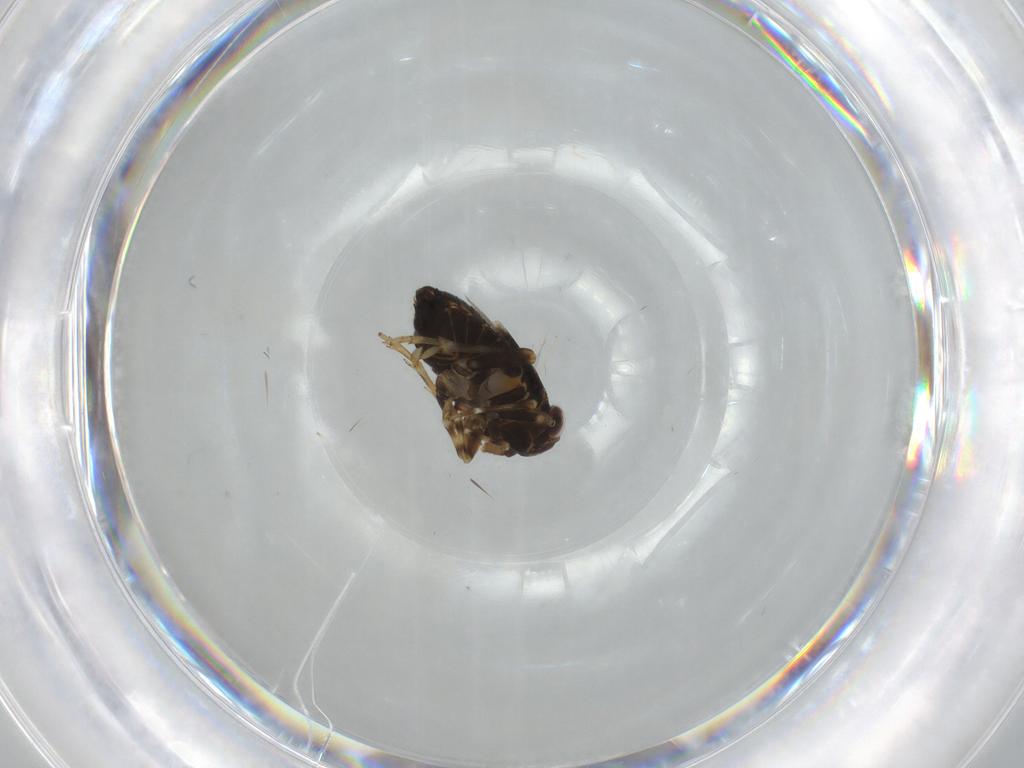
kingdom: Animalia
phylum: Arthropoda
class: Insecta
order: Hemiptera
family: Delphacidae
